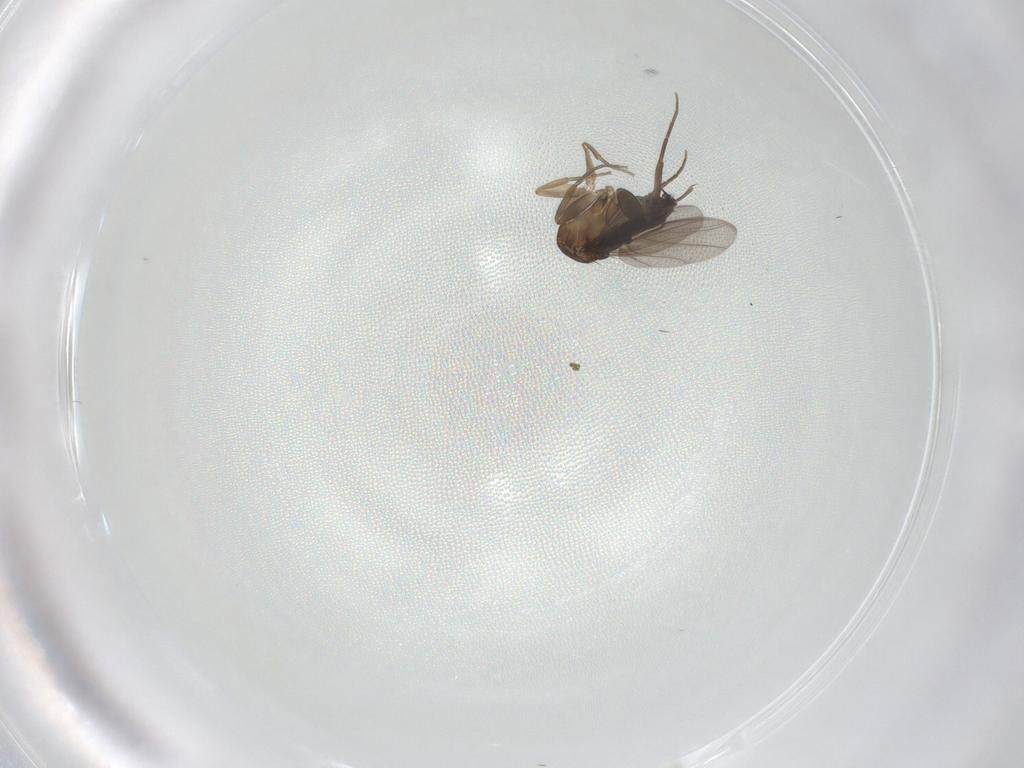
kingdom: Animalia
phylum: Arthropoda
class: Insecta
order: Diptera
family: Phoridae
